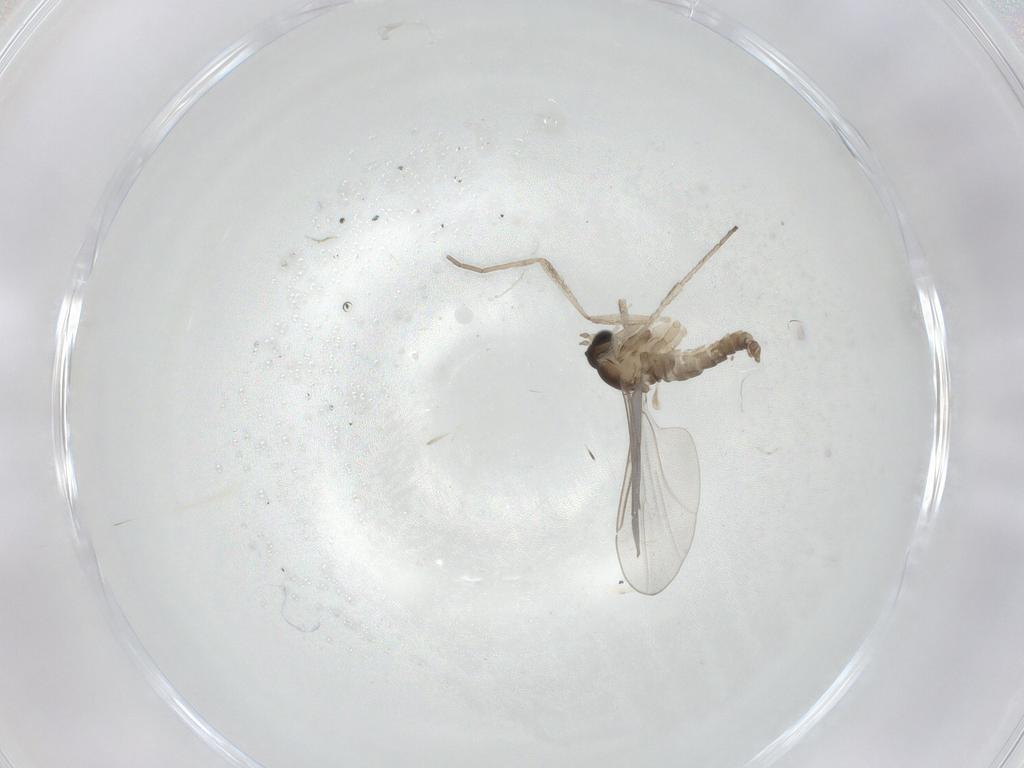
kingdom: Animalia
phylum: Arthropoda
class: Insecta
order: Diptera
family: Cecidomyiidae
